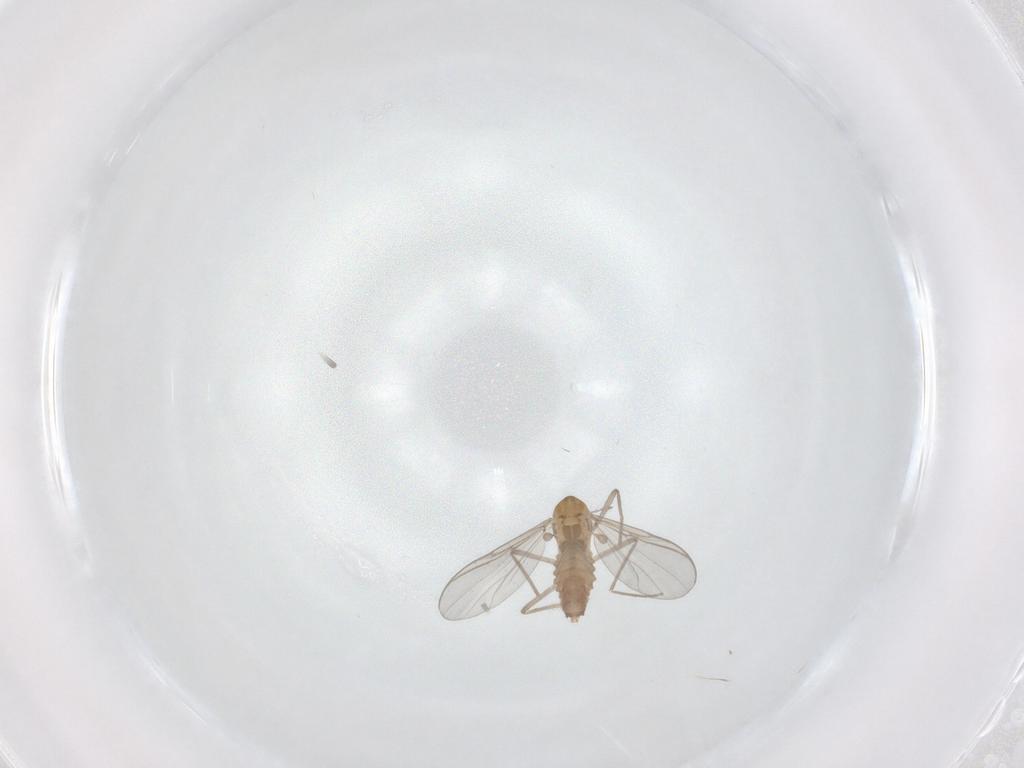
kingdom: Animalia
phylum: Arthropoda
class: Insecta
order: Diptera
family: Chironomidae
